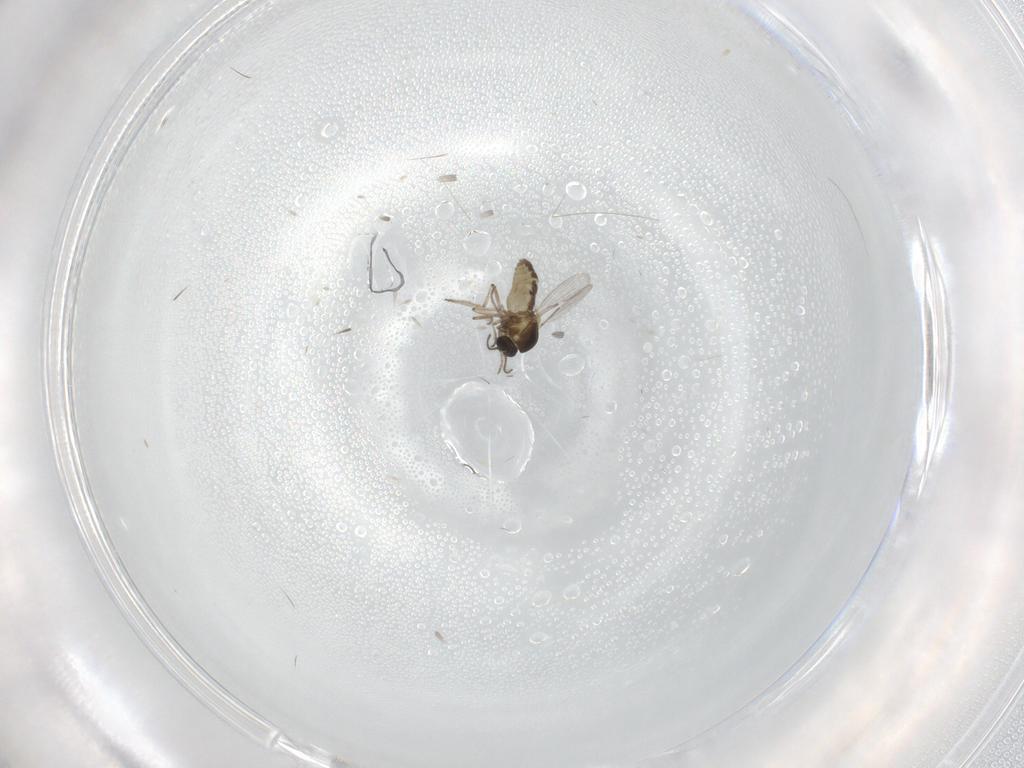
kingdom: Animalia
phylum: Arthropoda
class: Insecta
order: Diptera
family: Ceratopogonidae
